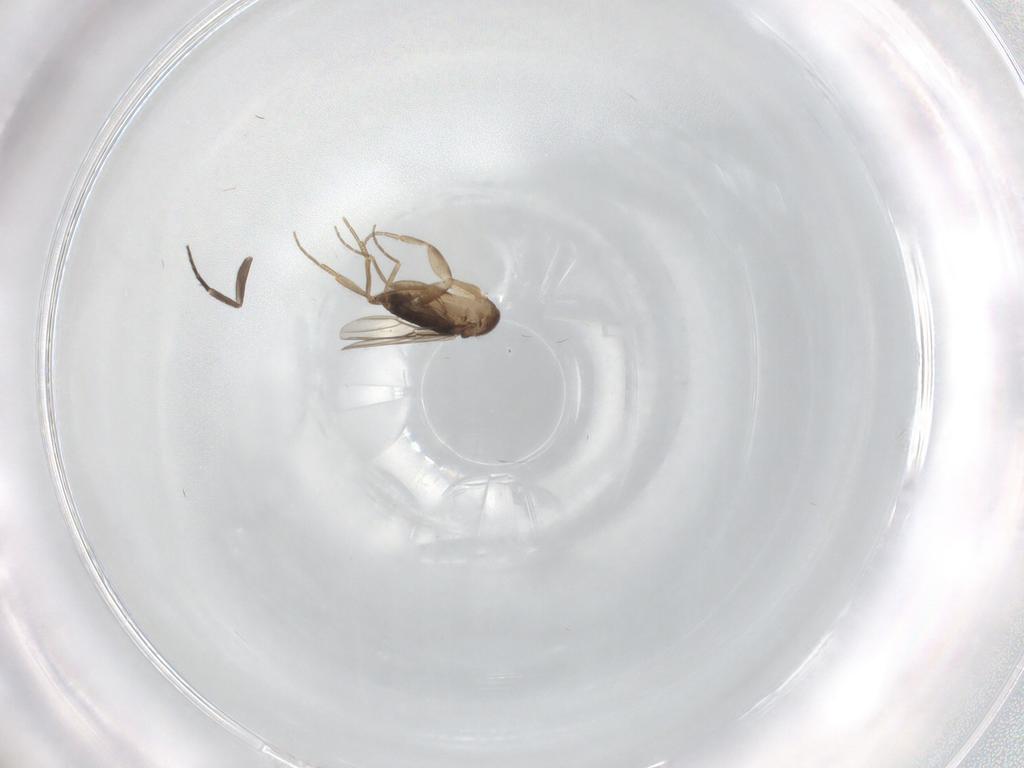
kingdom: Animalia
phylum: Arthropoda
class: Insecta
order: Diptera
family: Phoridae
